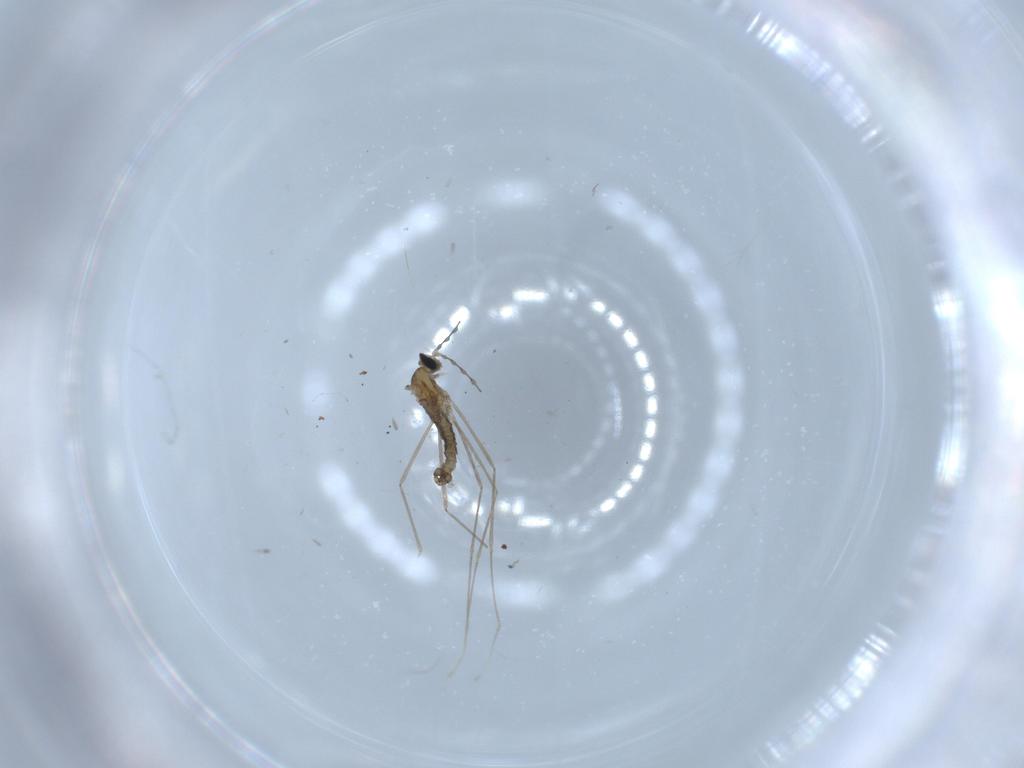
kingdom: Animalia
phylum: Arthropoda
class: Insecta
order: Diptera
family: Cecidomyiidae
